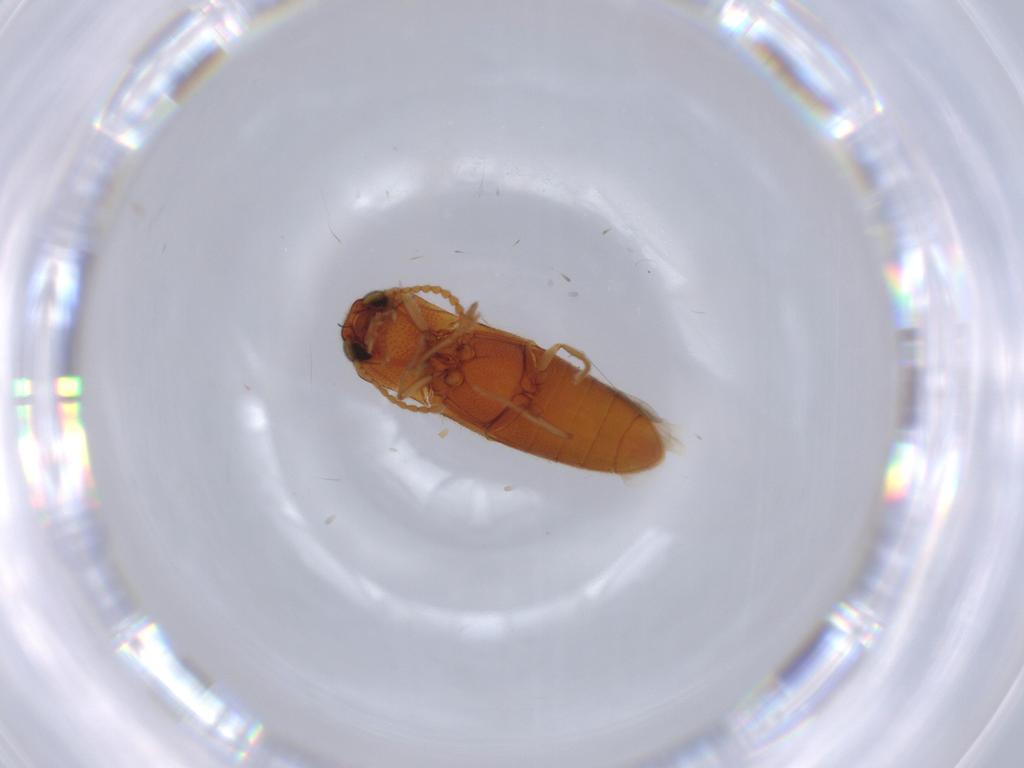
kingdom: Animalia
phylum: Arthropoda
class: Insecta
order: Coleoptera
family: Elateridae
